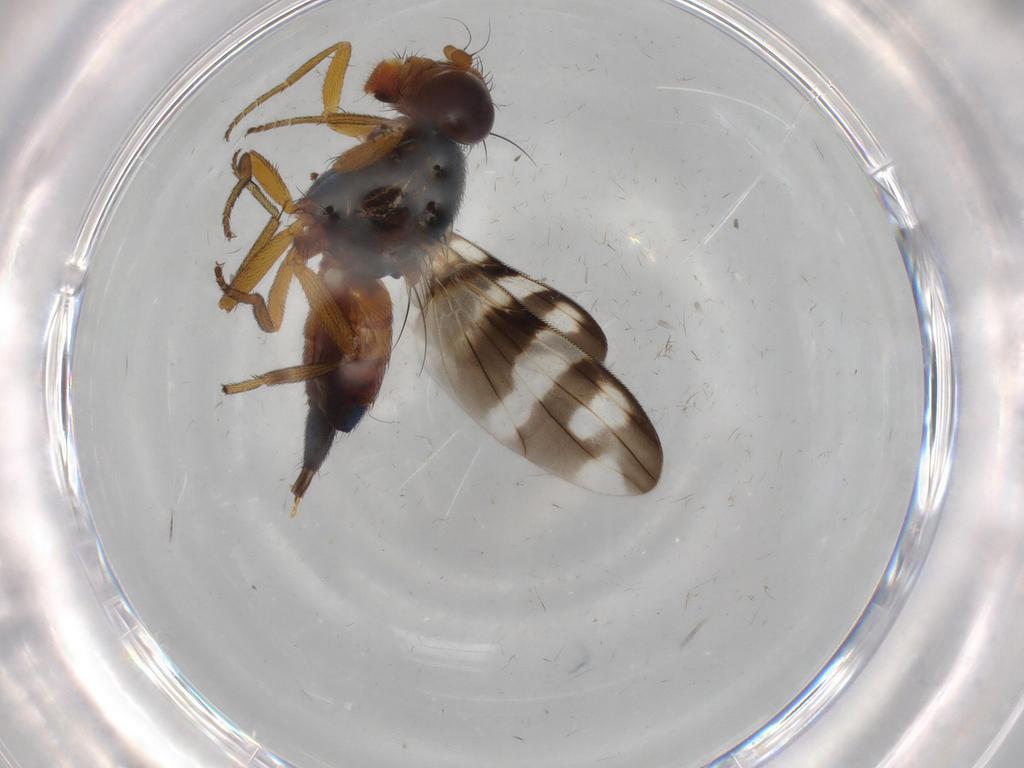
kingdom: Animalia
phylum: Arthropoda
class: Insecta
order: Diptera
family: Ulidiidae
